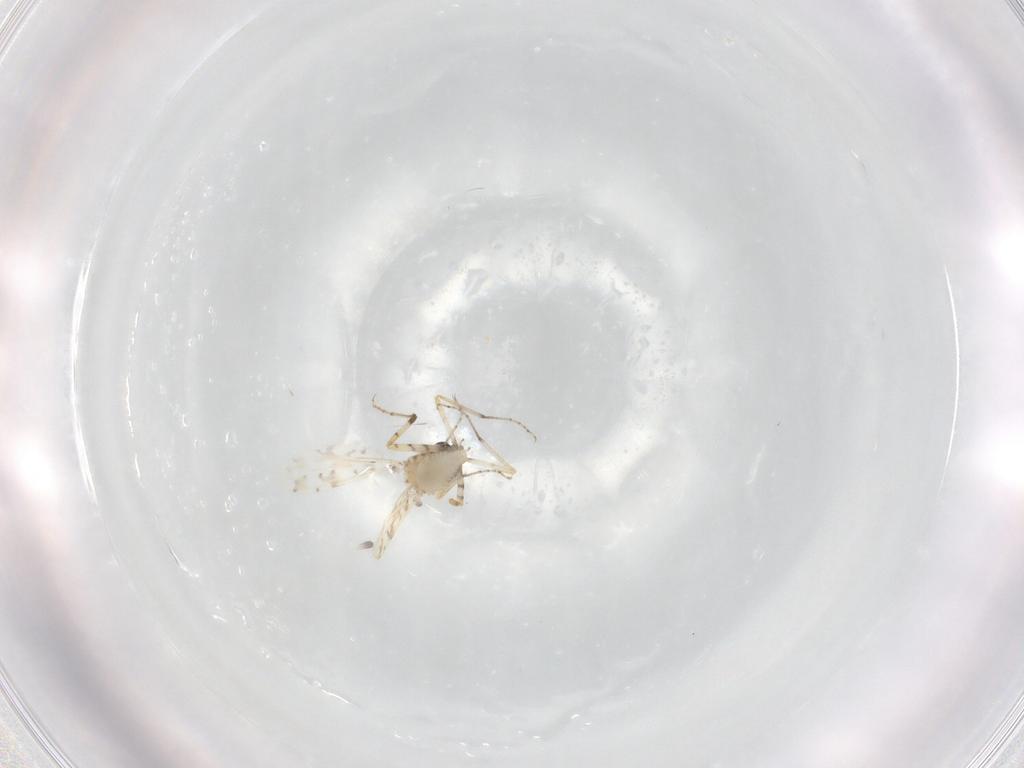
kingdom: Animalia
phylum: Arthropoda
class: Insecta
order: Diptera
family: Ceratopogonidae
